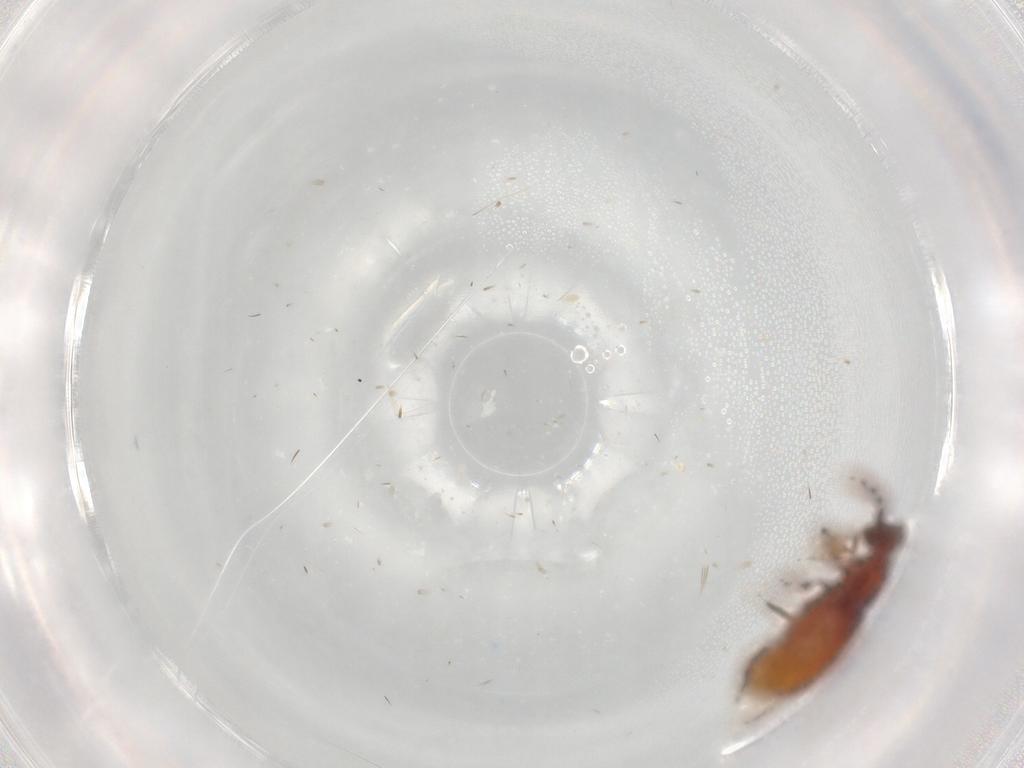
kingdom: Animalia
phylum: Arthropoda
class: Insecta
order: Coleoptera
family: Staphylinidae
